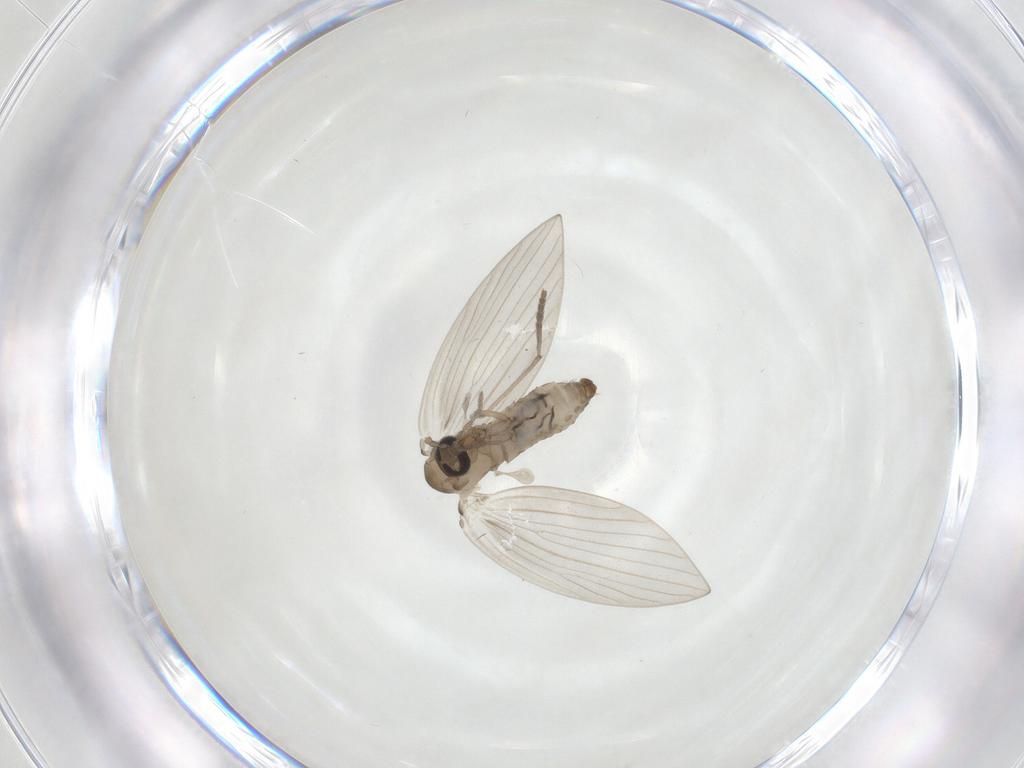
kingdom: Animalia
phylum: Arthropoda
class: Insecta
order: Diptera
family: Psychodidae
